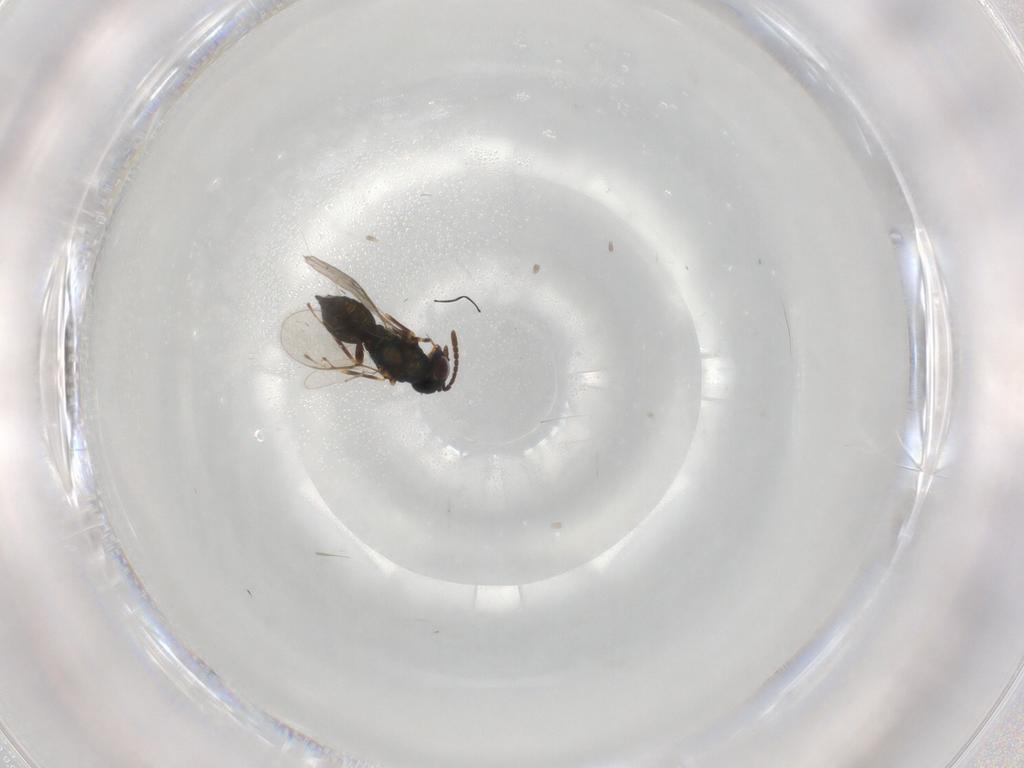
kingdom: Animalia
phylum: Arthropoda
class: Insecta
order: Hymenoptera
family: Pteromalidae
